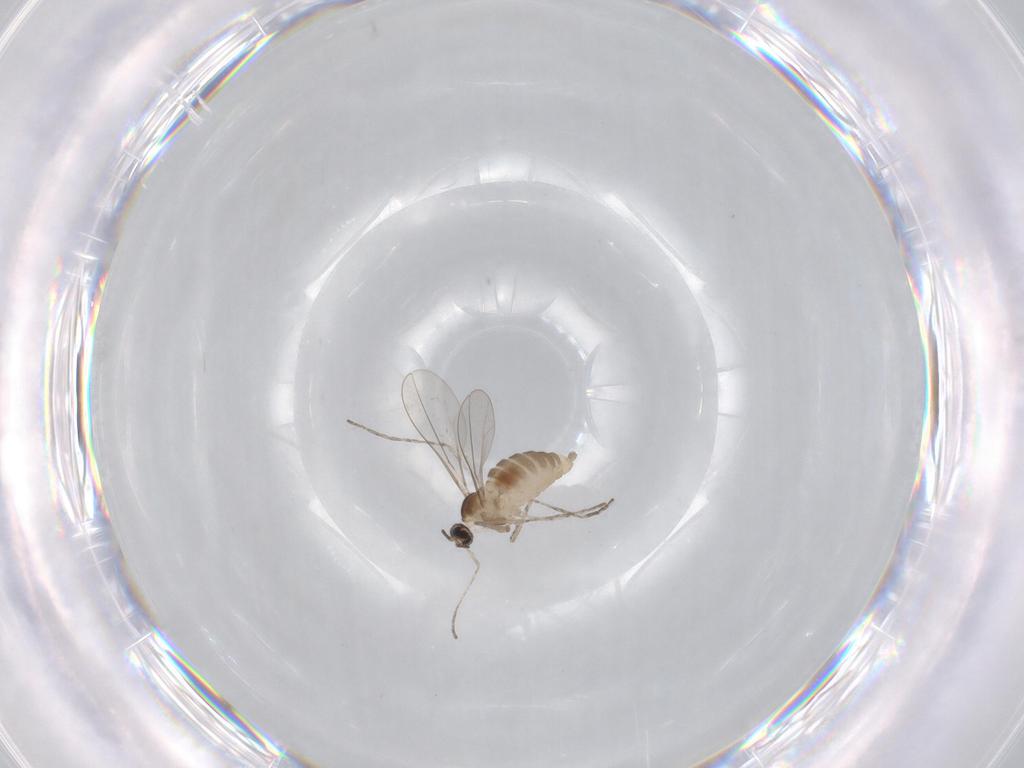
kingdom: Animalia
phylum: Arthropoda
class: Insecta
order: Diptera
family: Cecidomyiidae
